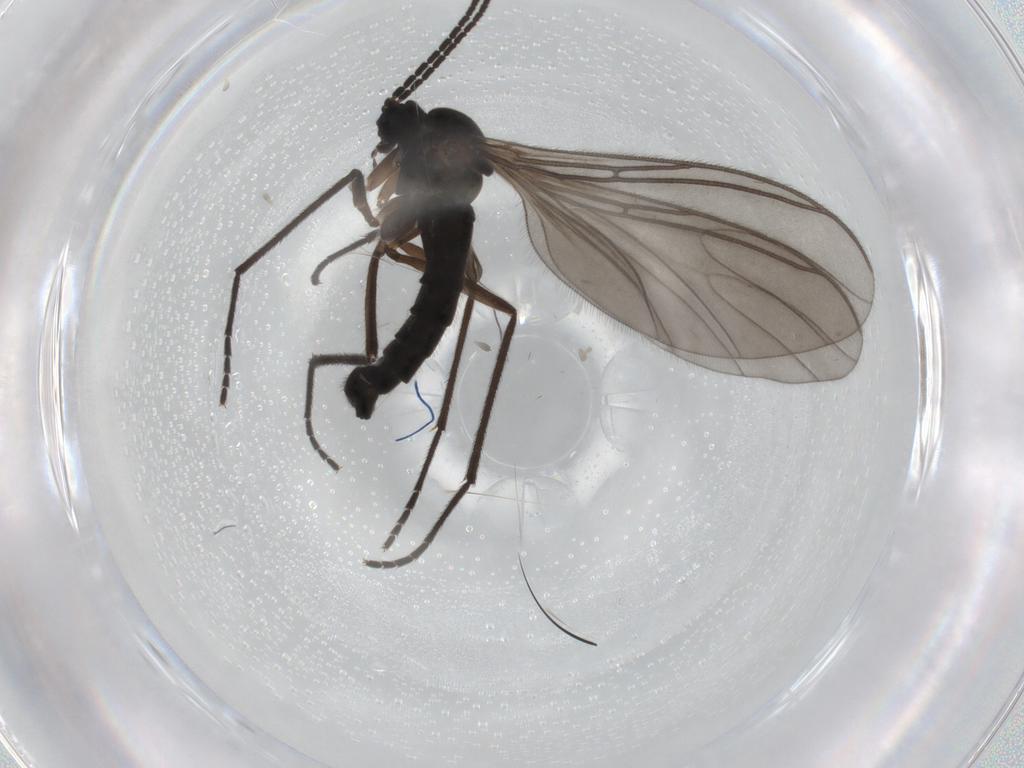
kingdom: Animalia
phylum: Arthropoda
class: Insecta
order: Diptera
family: Sciaridae
